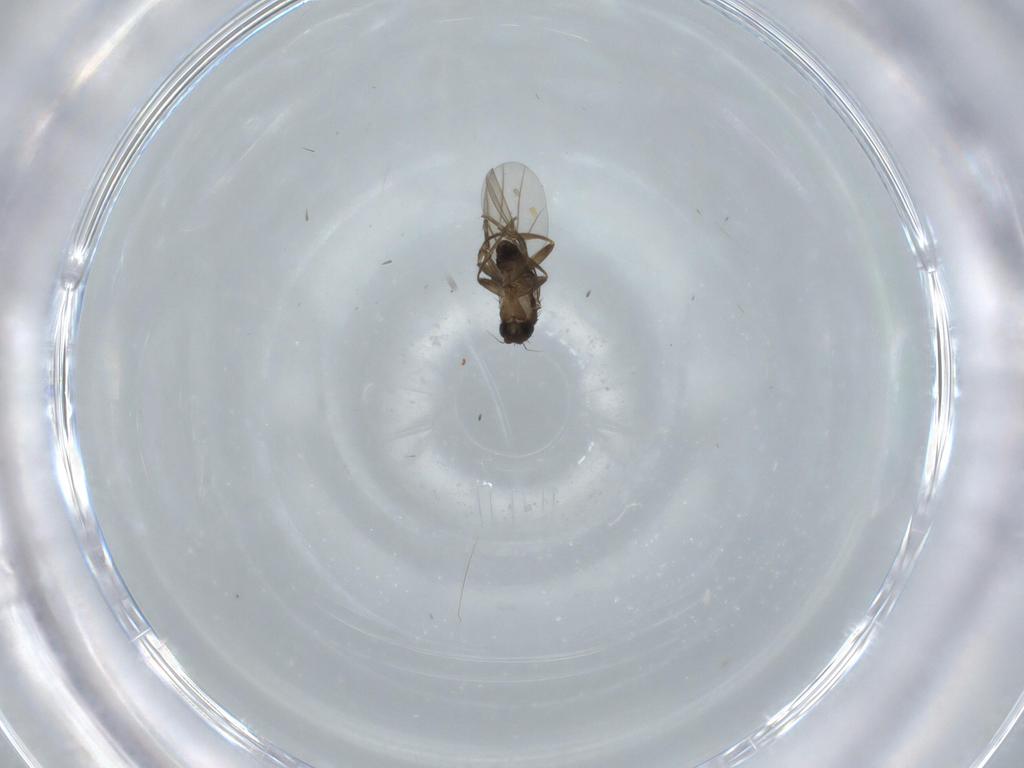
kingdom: Animalia
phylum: Arthropoda
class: Insecta
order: Diptera
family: Phoridae
